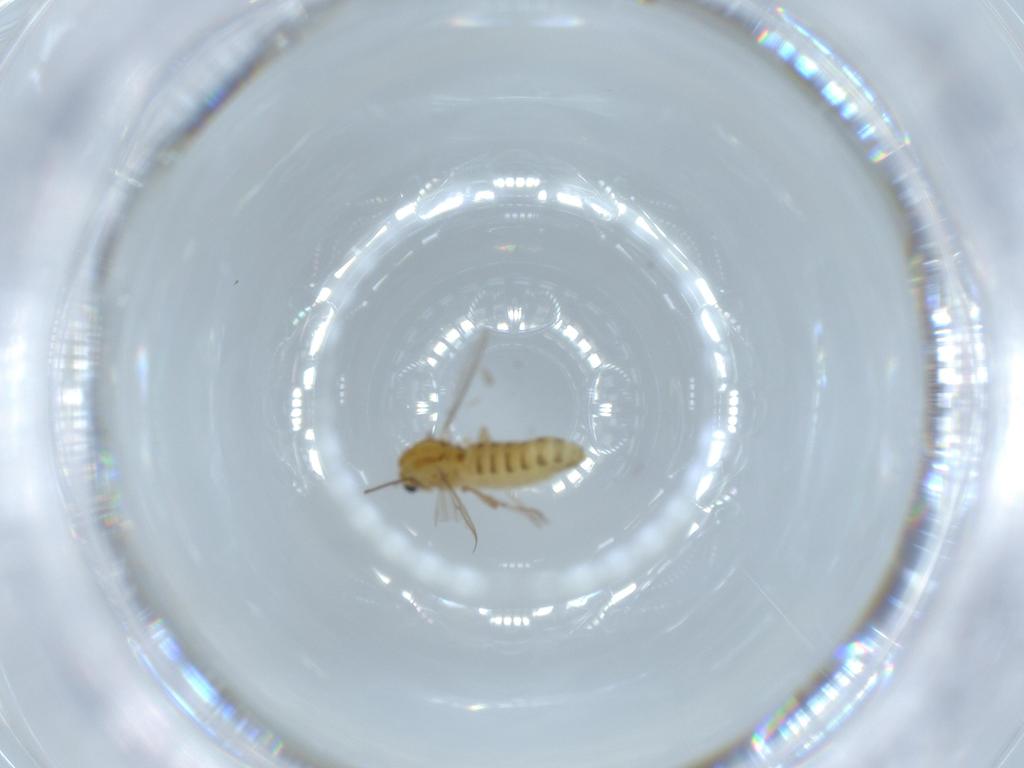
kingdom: Animalia
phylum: Arthropoda
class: Insecta
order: Diptera
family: Chironomidae
